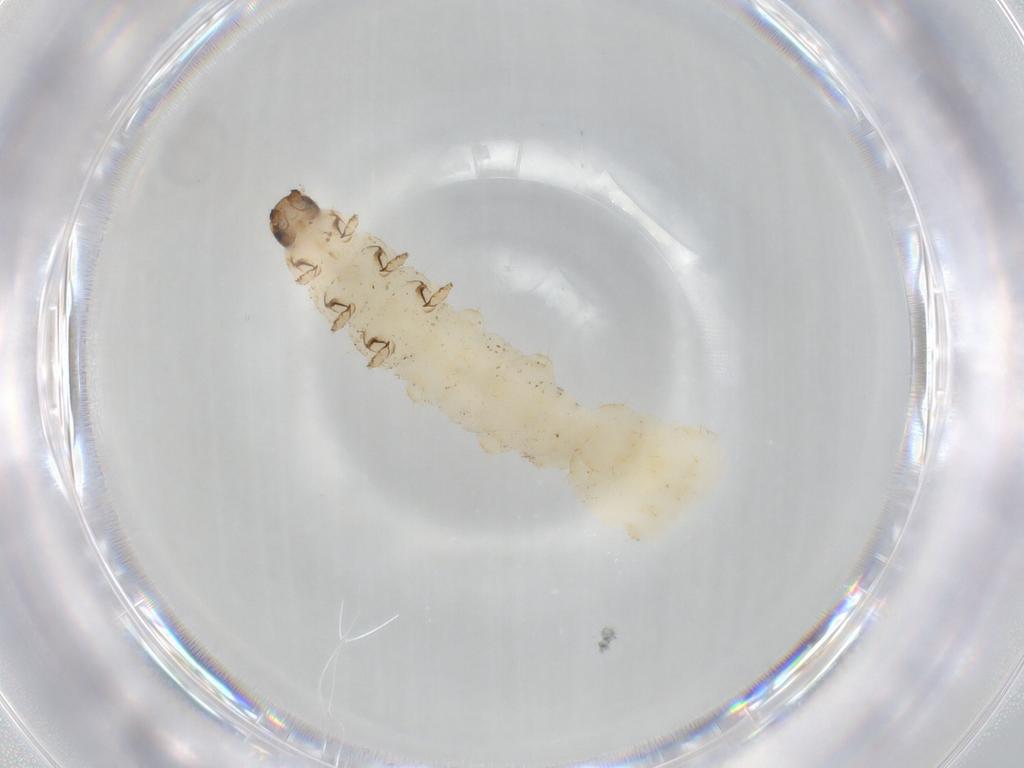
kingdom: Animalia
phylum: Arthropoda
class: Insecta
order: Coleoptera
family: Chrysomelidae
